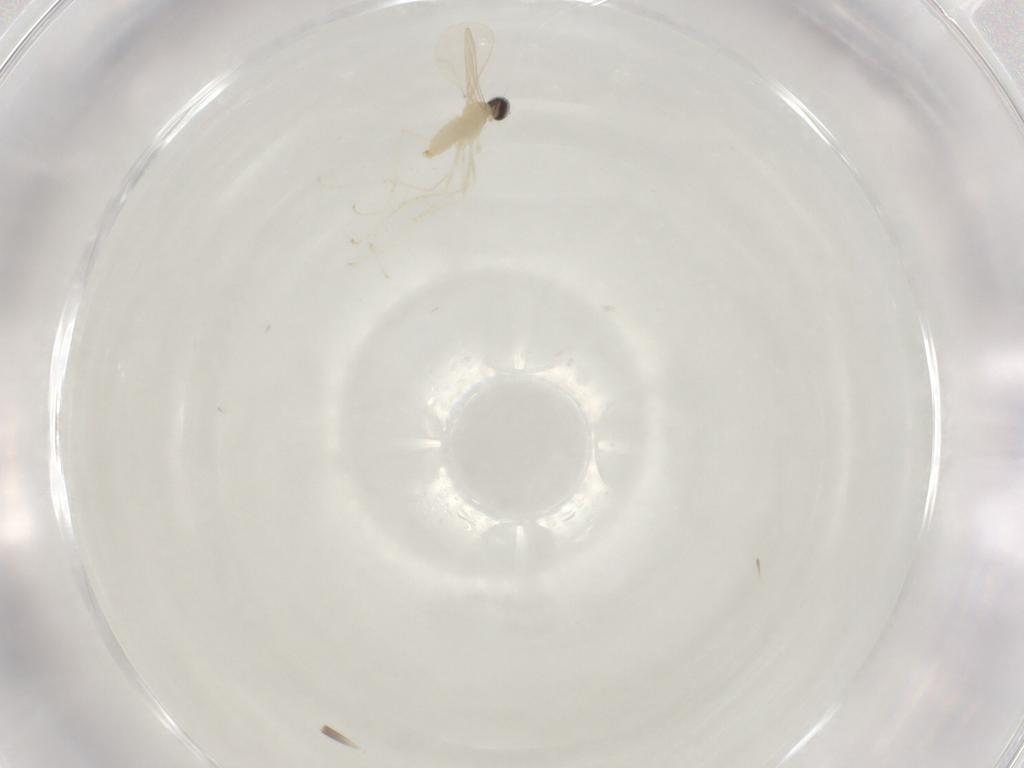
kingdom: Animalia
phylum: Arthropoda
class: Insecta
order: Diptera
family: Cecidomyiidae
